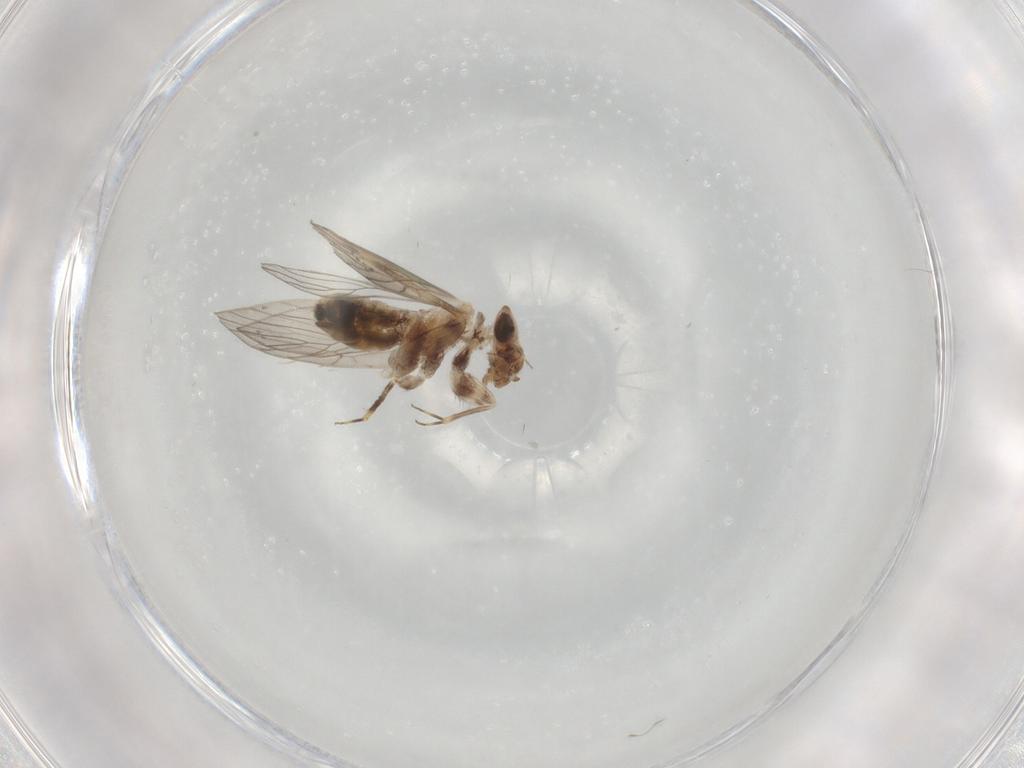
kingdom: Animalia
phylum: Arthropoda
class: Insecta
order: Psocodea
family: Lepidopsocidae
